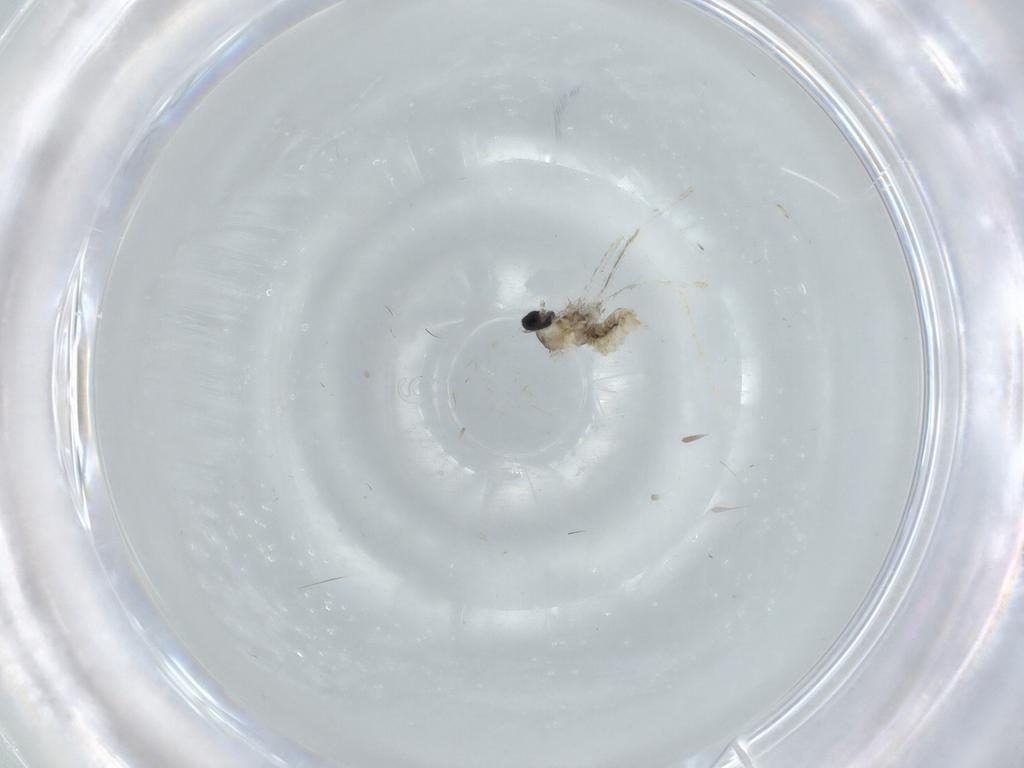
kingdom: Animalia
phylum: Arthropoda
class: Insecta
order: Diptera
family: Cecidomyiidae
